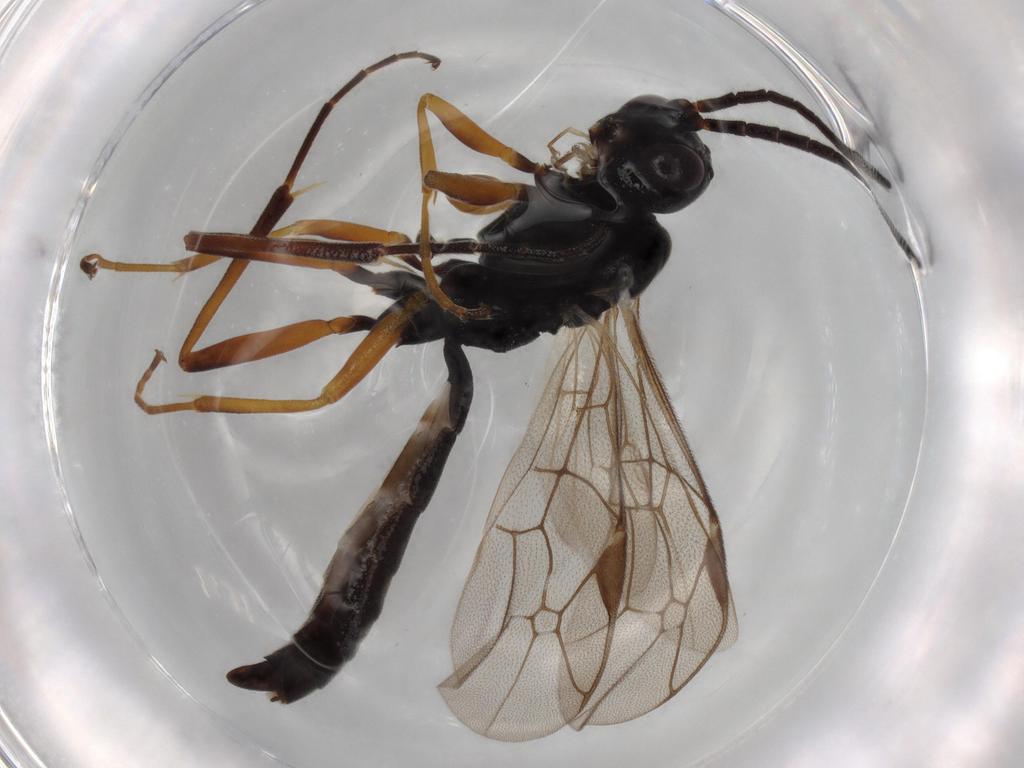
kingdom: Animalia
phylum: Arthropoda
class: Insecta
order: Hymenoptera
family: Ichneumonidae
